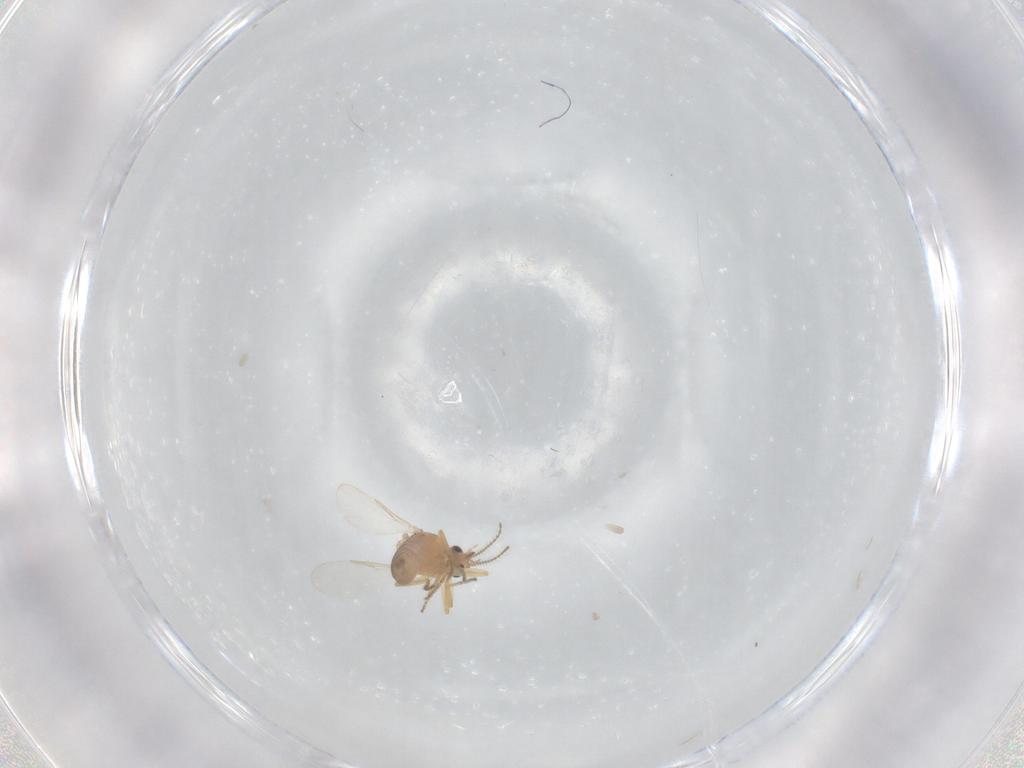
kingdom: Animalia
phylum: Arthropoda
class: Insecta
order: Diptera
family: Ceratopogonidae
